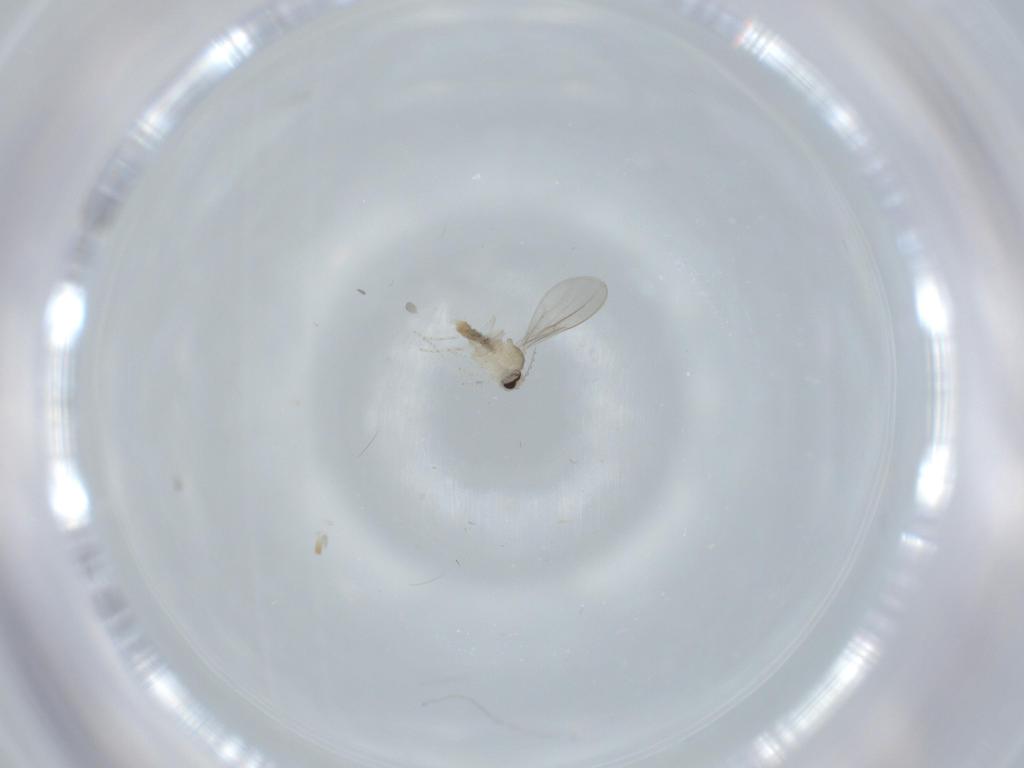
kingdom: Animalia
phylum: Arthropoda
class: Insecta
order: Diptera
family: Cecidomyiidae
